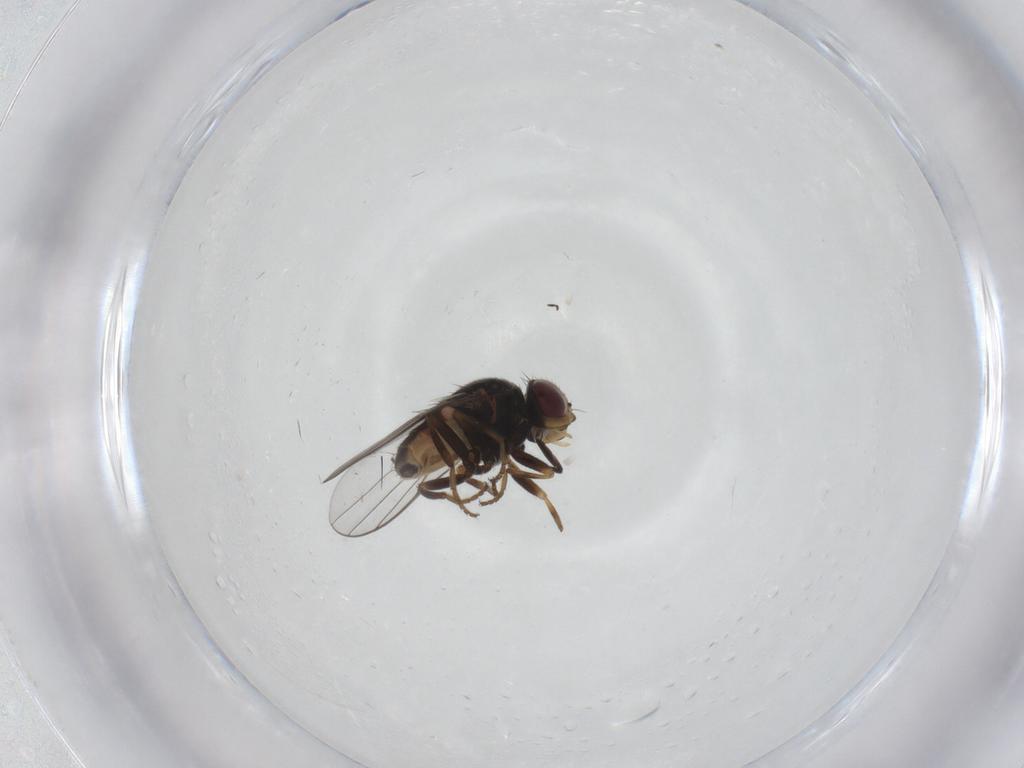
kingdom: Animalia
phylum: Arthropoda
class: Insecta
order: Diptera
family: Chloropidae
